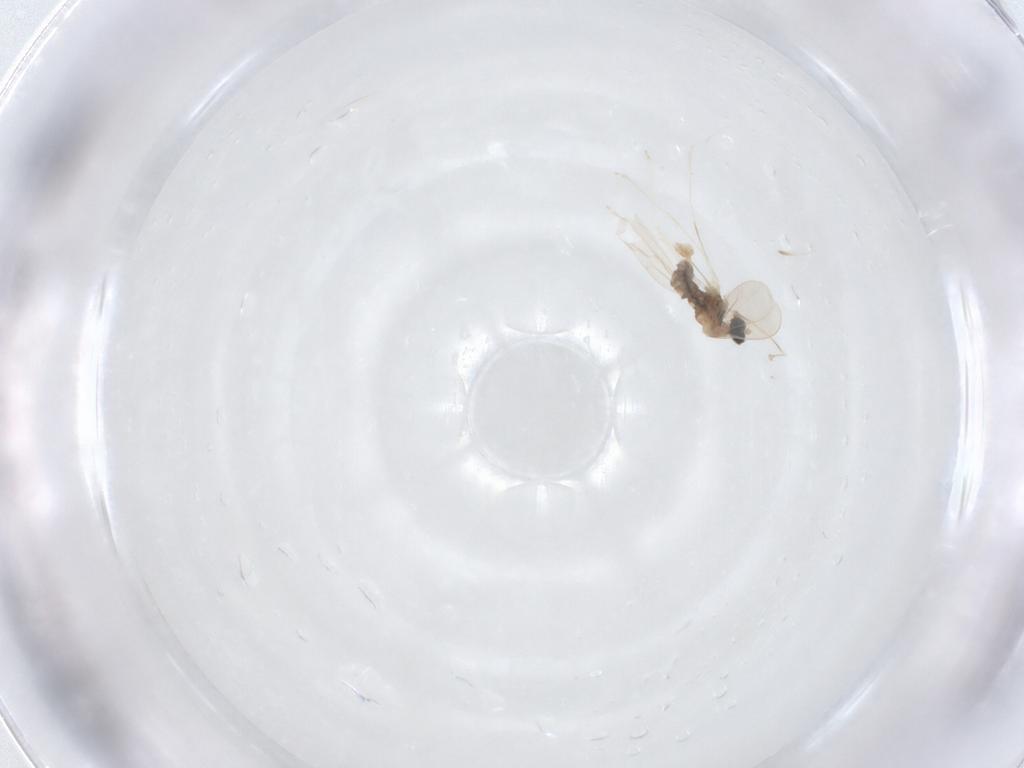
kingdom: Animalia
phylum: Arthropoda
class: Insecta
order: Diptera
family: Cecidomyiidae
